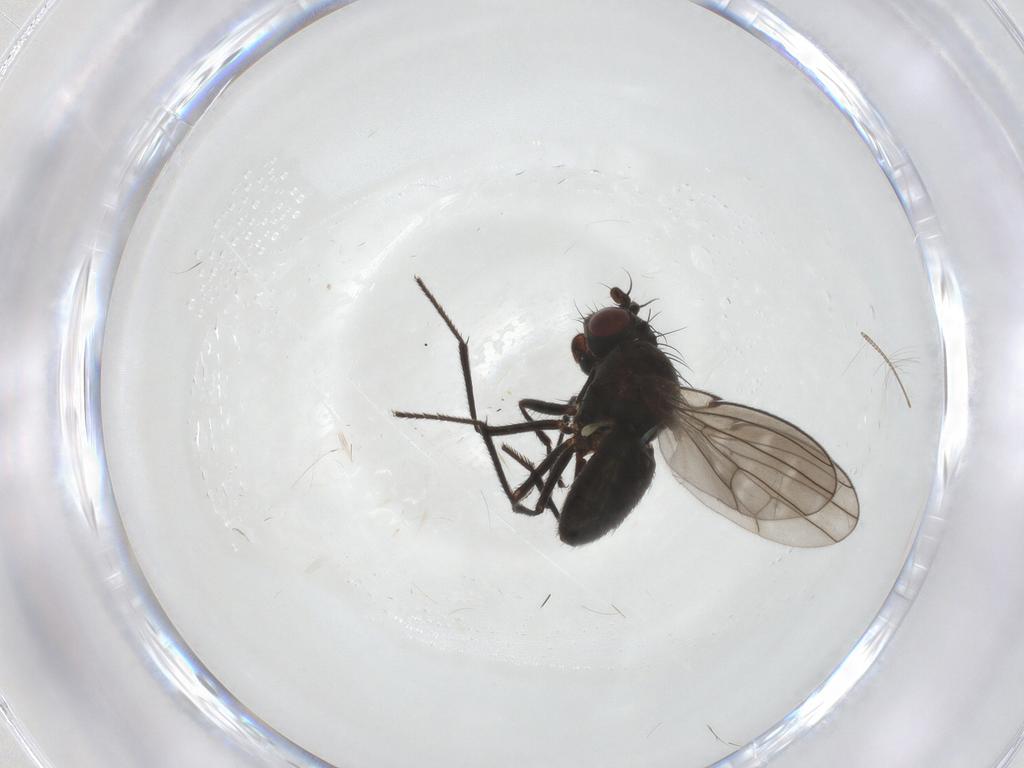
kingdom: Animalia
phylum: Arthropoda
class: Insecta
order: Diptera
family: Ephydridae
